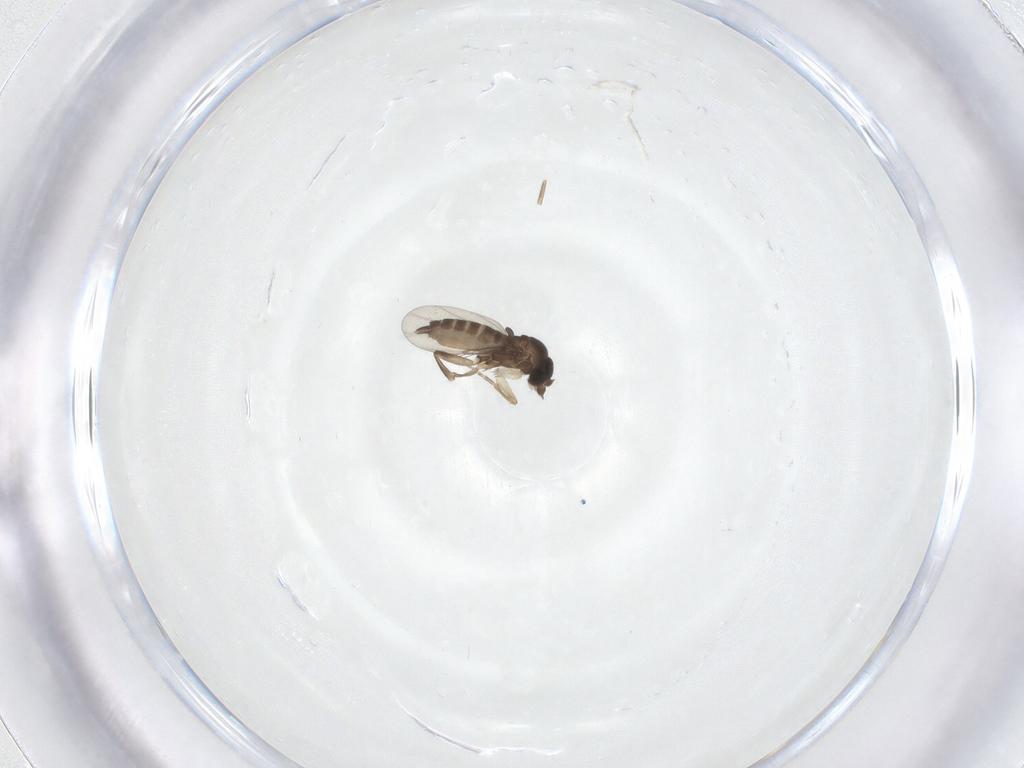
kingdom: Animalia
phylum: Arthropoda
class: Insecta
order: Diptera
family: Phoridae
